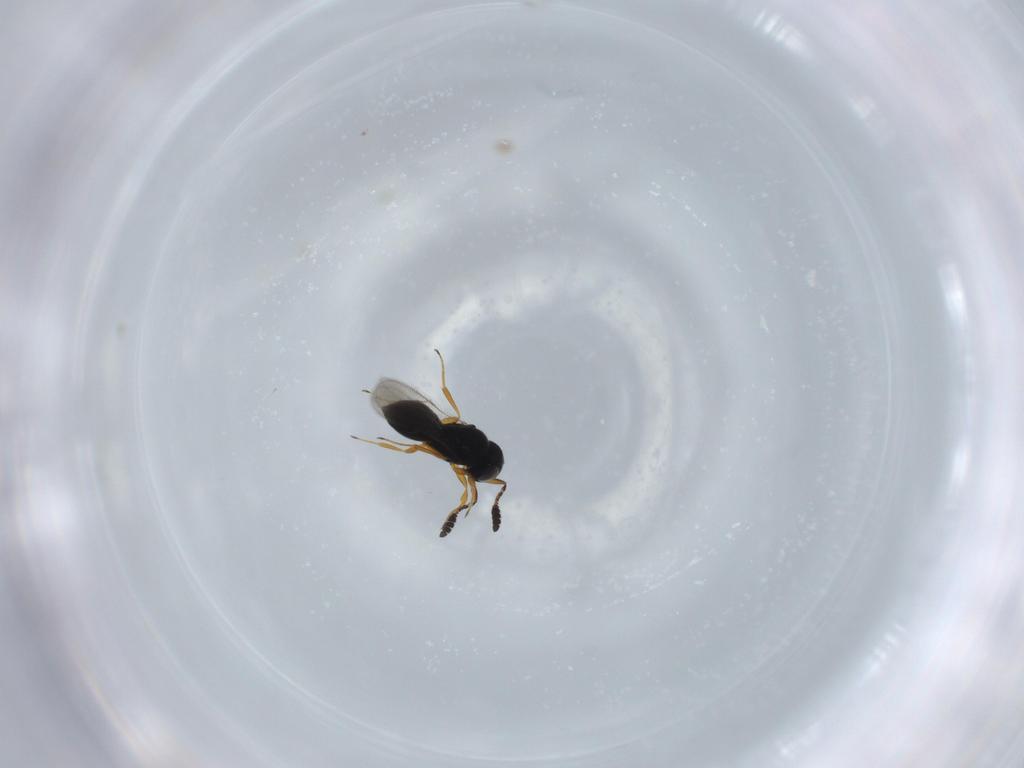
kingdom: Animalia
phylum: Arthropoda
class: Insecta
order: Hymenoptera
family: Scelionidae
